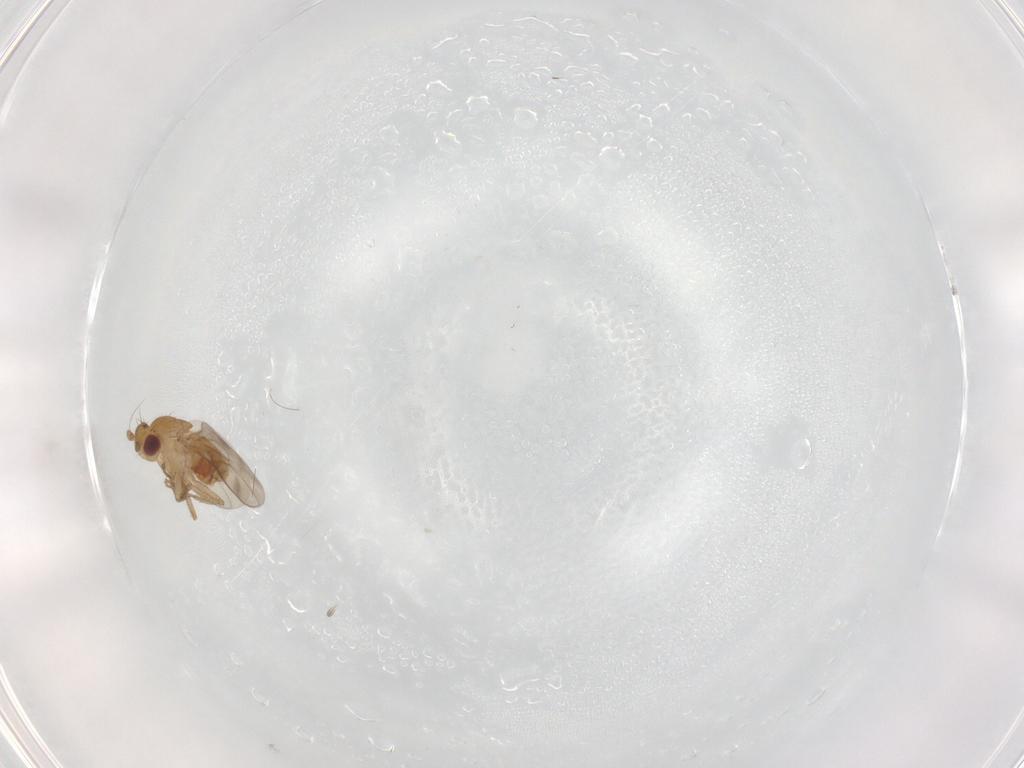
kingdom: Animalia
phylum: Arthropoda
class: Insecta
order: Diptera
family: Sphaeroceridae
